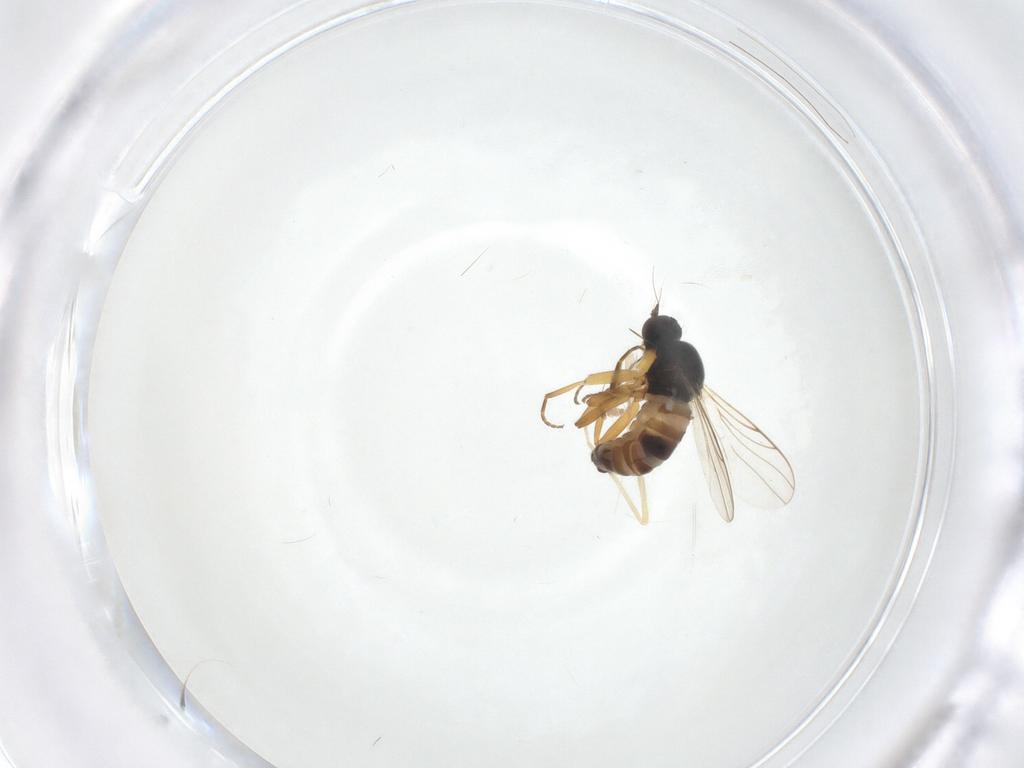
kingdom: Animalia
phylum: Arthropoda
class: Insecta
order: Diptera
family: Hybotidae
